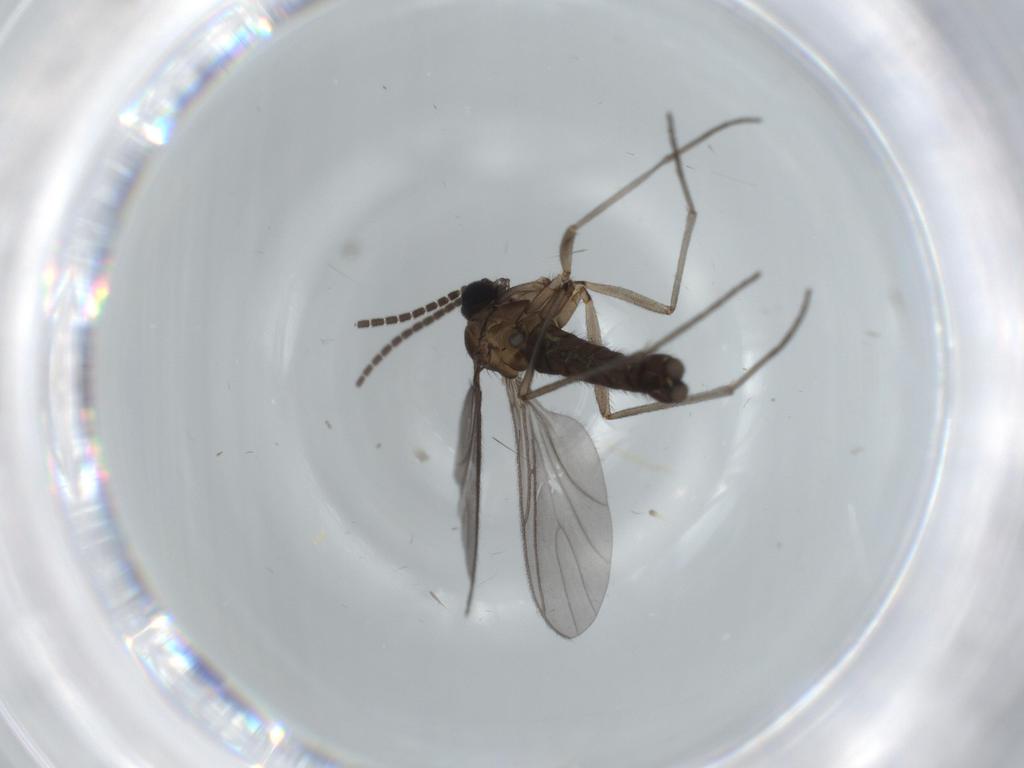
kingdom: Animalia
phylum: Arthropoda
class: Insecta
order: Diptera
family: Sciaridae
